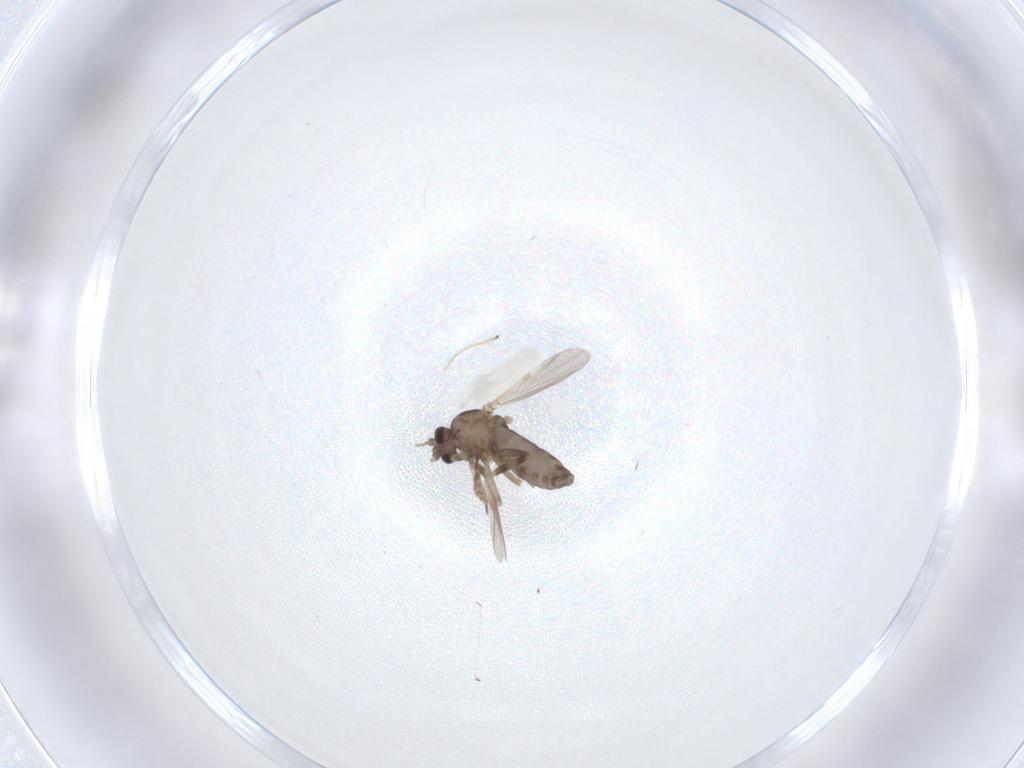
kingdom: Animalia
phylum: Arthropoda
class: Insecta
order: Diptera
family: Ceratopogonidae
